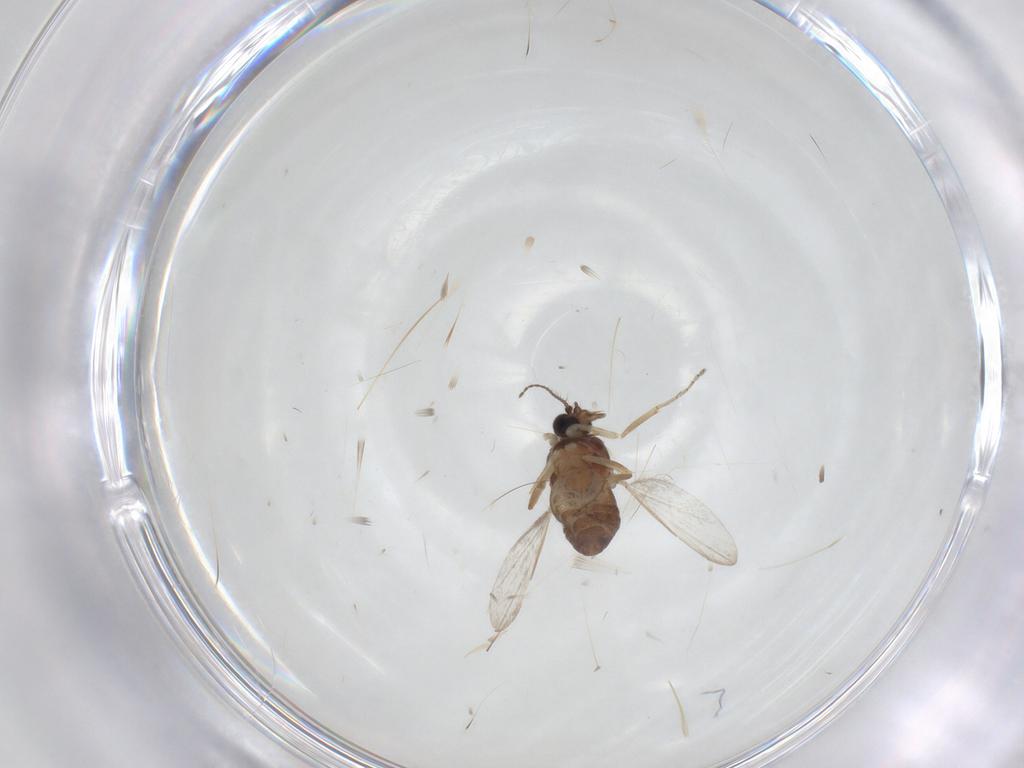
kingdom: Animalia
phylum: Arthropoda
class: Insecta
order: Diptera
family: Ceratopogonidae
